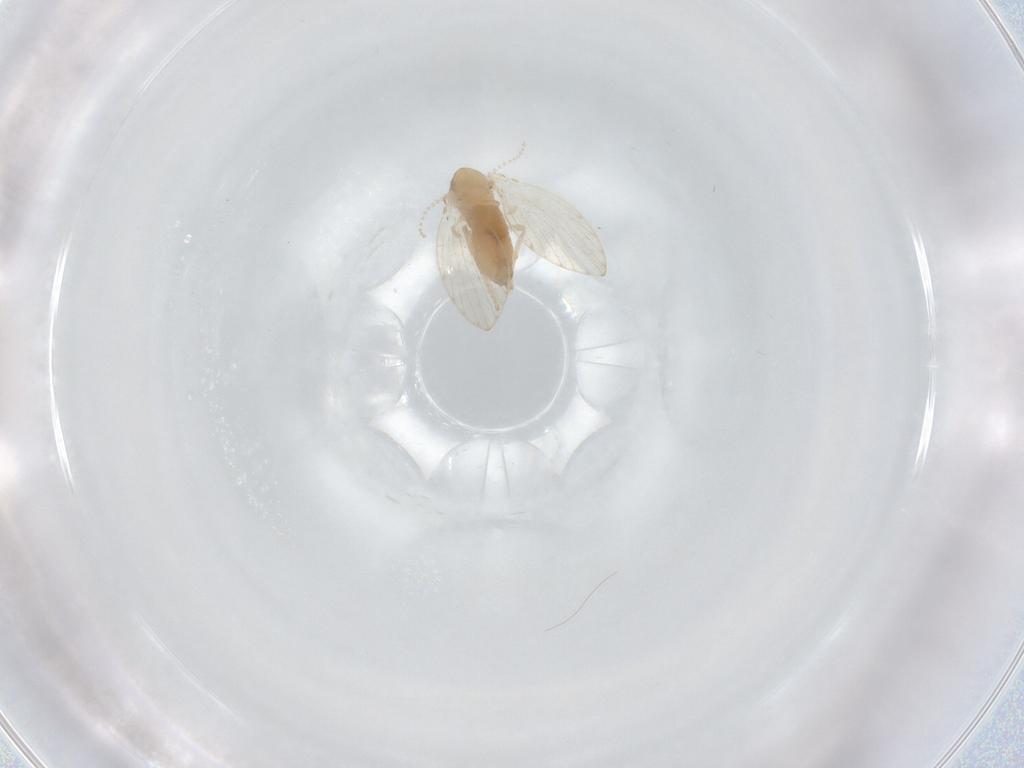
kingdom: Animalia
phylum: Arthropoda
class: Insecta
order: Diptera
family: Psychodidae
